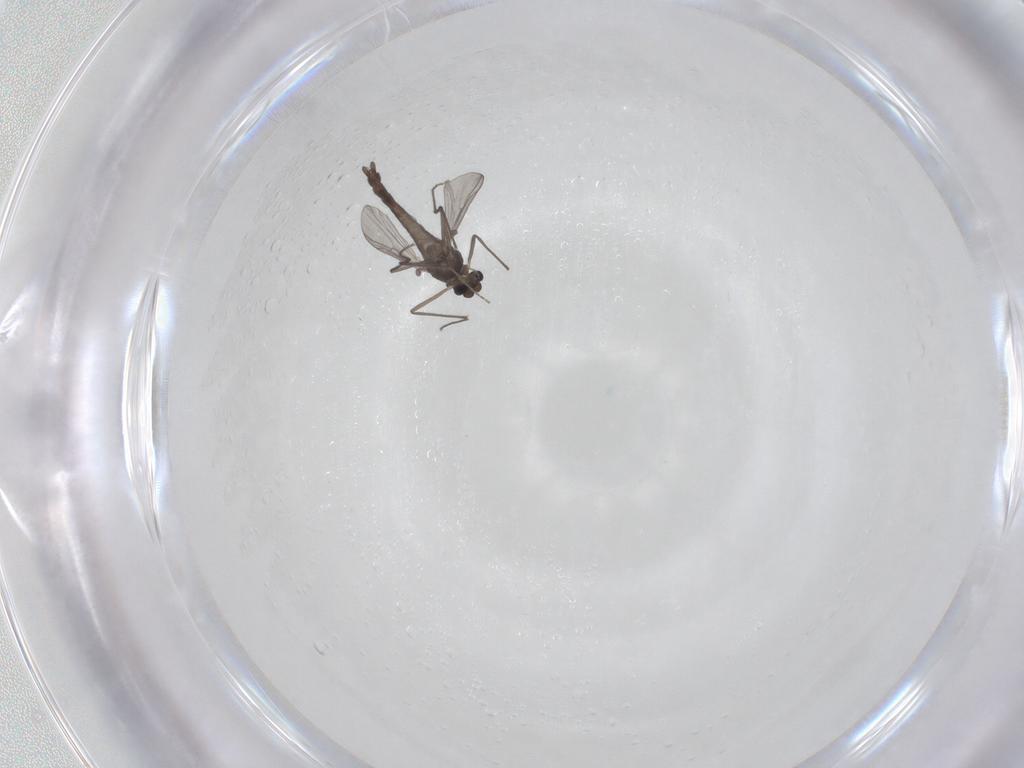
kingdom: Animalia
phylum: Arthropoda
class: Insecta
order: Diptera
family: Chironomidae
